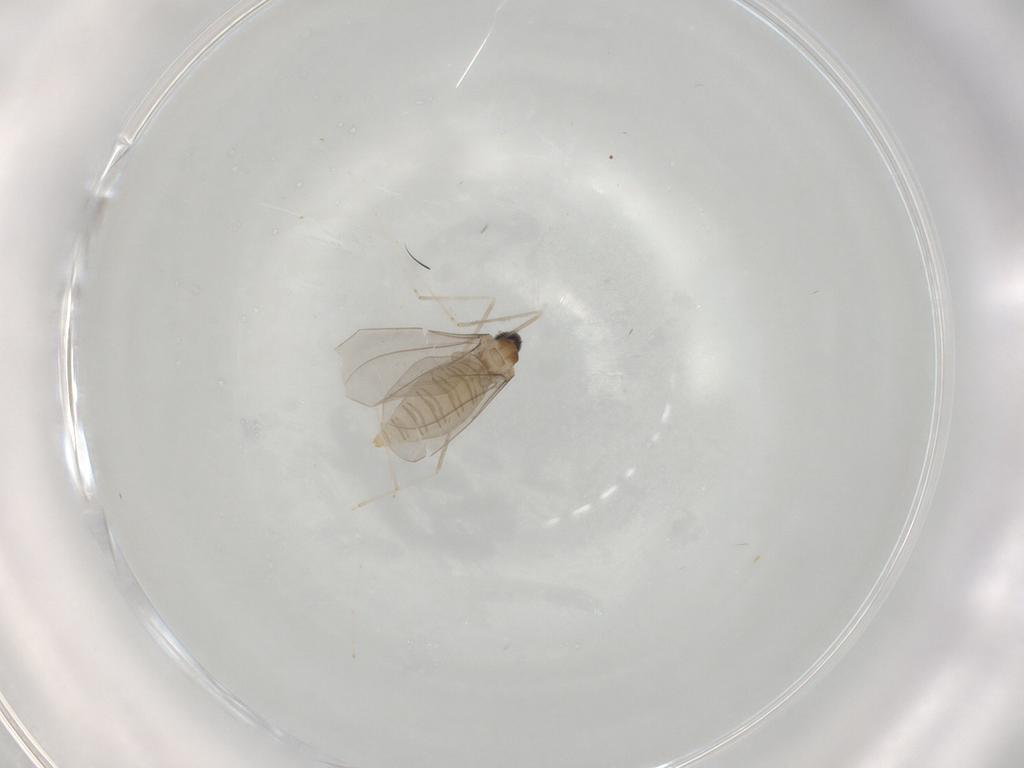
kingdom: Animalia
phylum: Arthropoda
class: Insecta
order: Diptera
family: Cecidomyiidae
